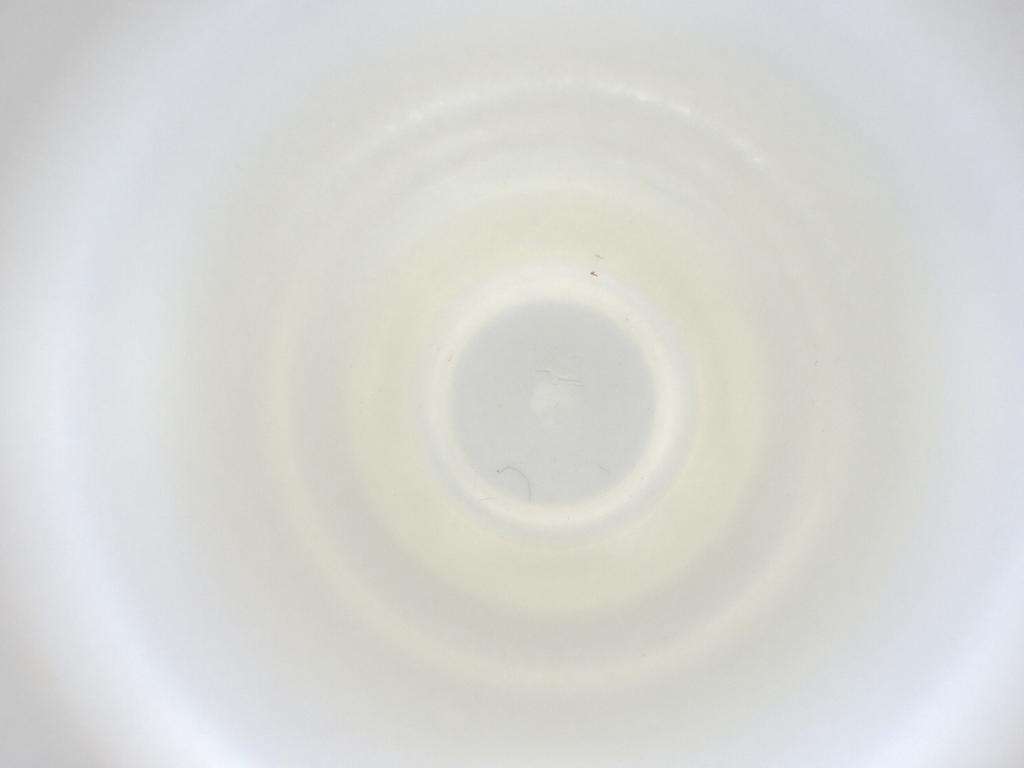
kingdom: Animalia
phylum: Arthropoda
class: Insecta
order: Diptera
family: Cecidomyiidae
